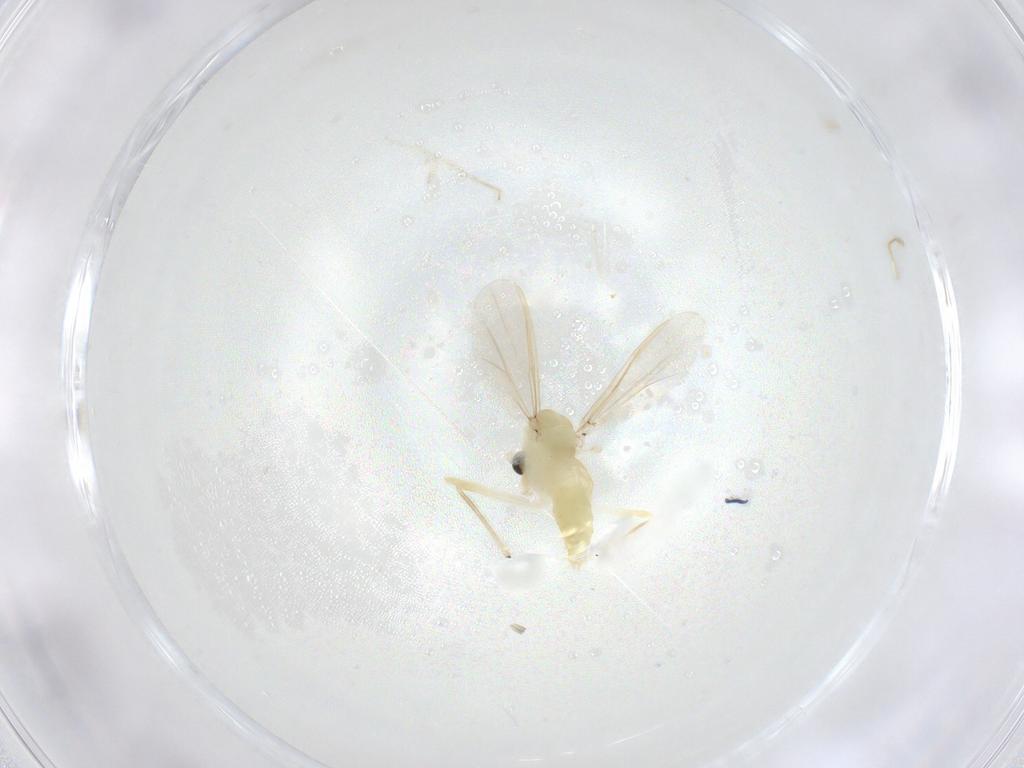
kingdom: Animalia
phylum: Arthropoda
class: Insecta
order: Diptera
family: Chironomidae
